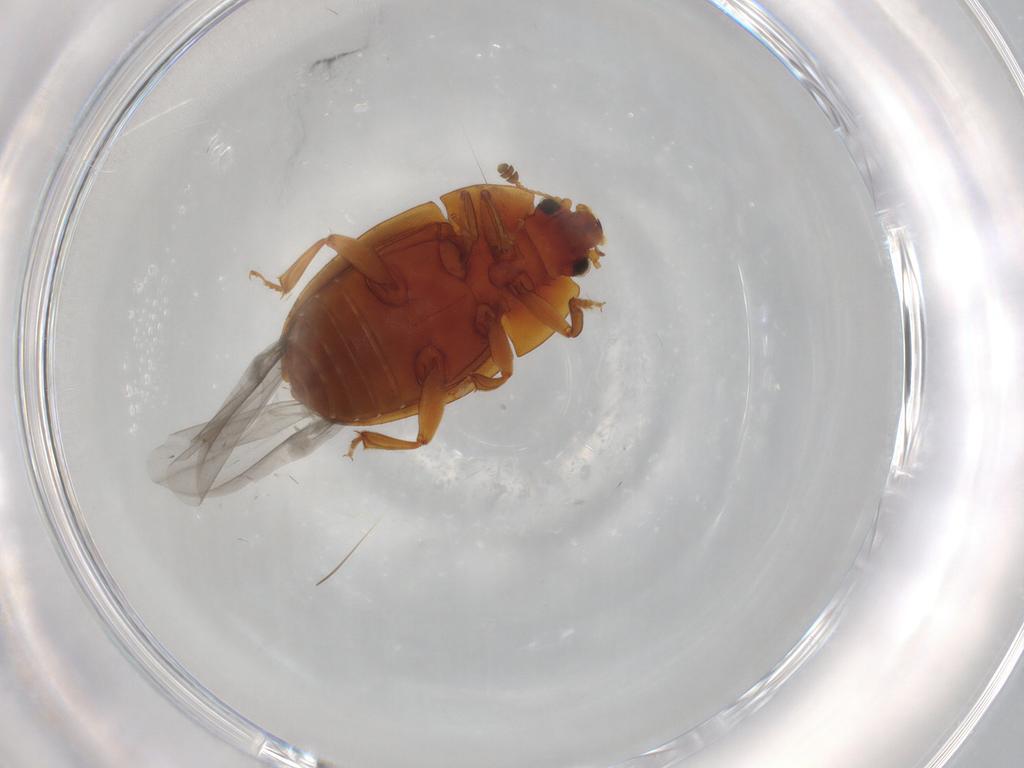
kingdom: Animalia
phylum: Arthropoda
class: Insecta
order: Coleoptera
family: Nitidulidae
